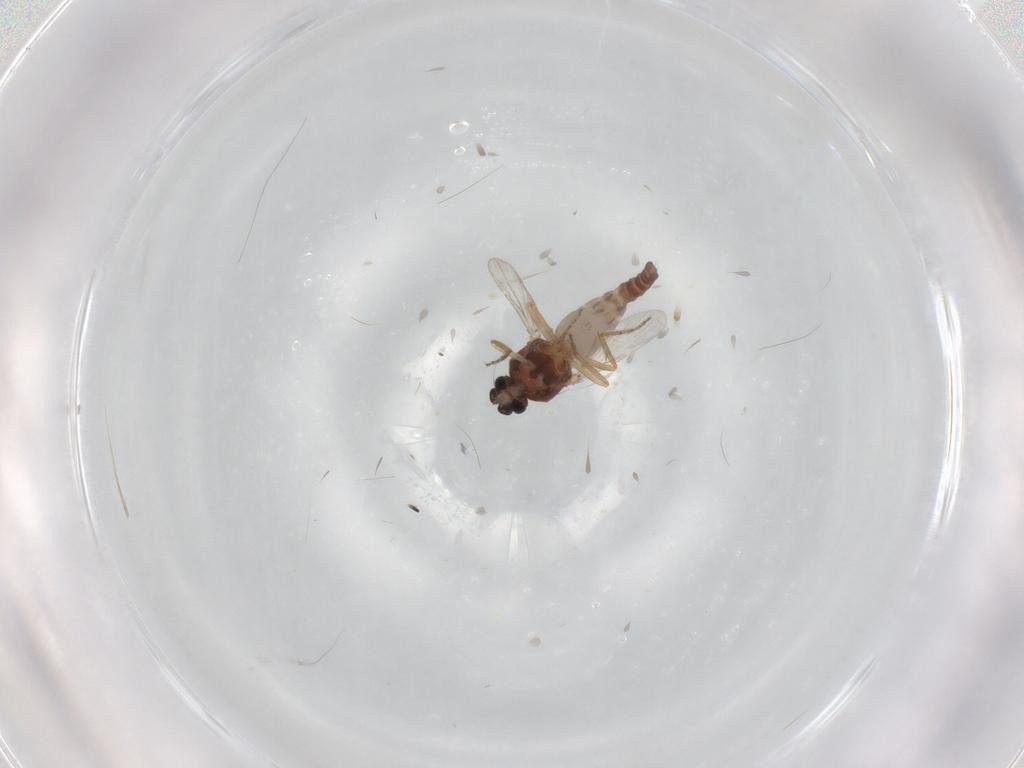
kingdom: Animalia
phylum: Arthropoda
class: Insecta
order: Diptera
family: Ceratopogonidae
